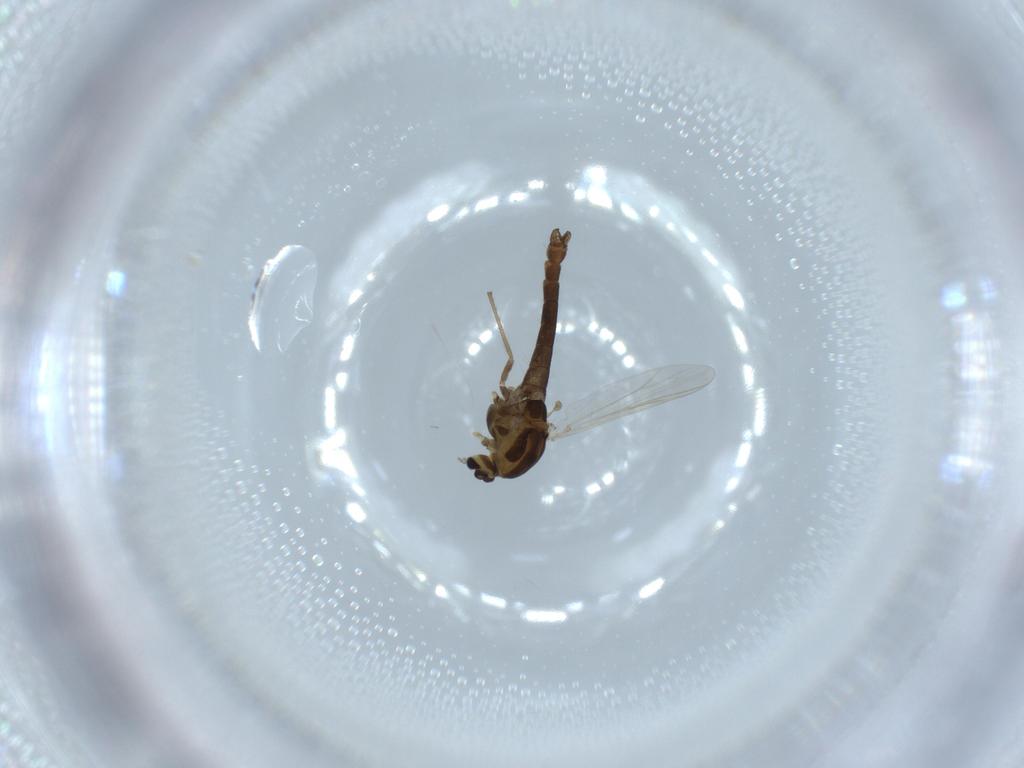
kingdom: Animalia
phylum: Arthropoda
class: Insecta
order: Diptera
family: Chironomidae
